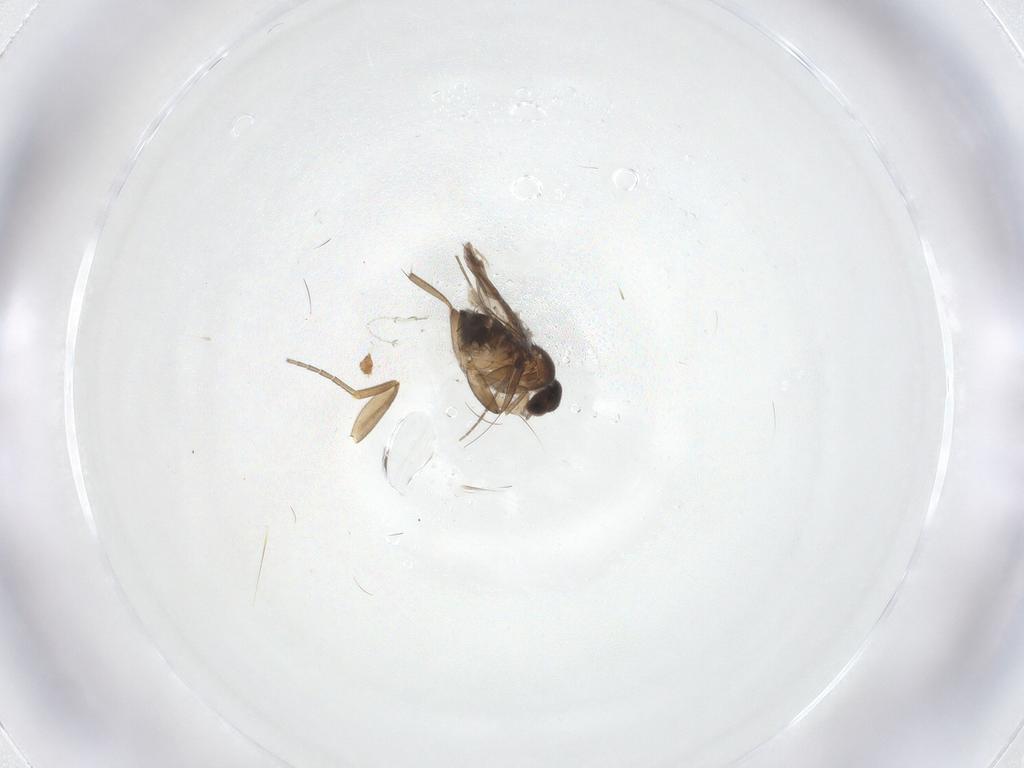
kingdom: Animalia
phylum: Arthropoda
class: Insecta
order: Diptera
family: Phoridae
